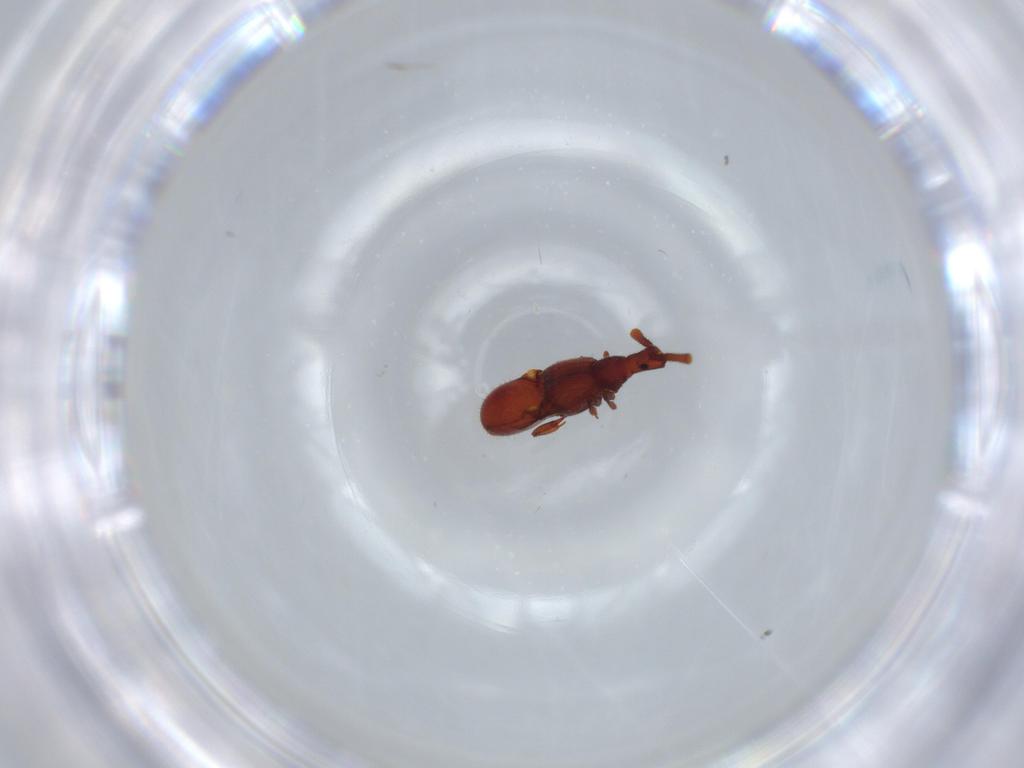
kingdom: Animalia
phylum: Arthropoda
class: Insecta
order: Coleoptera
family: Staphylinidae
